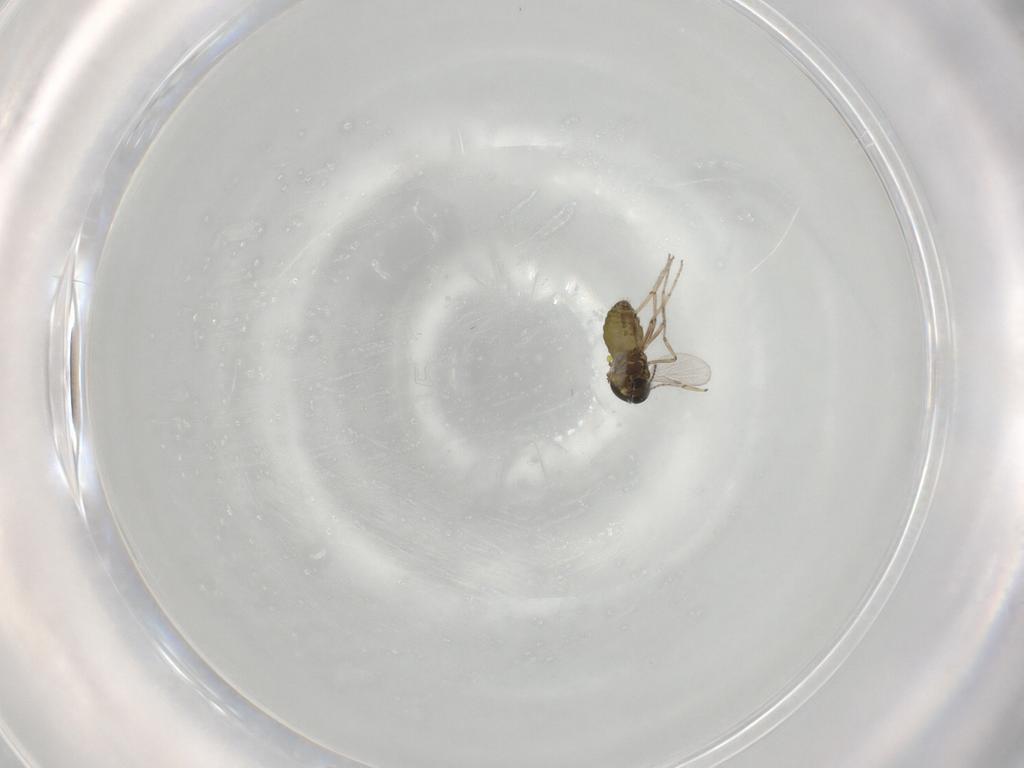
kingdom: Animalia
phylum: Arthropoda
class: Insecta
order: Diptera
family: Ceratopogonidae
